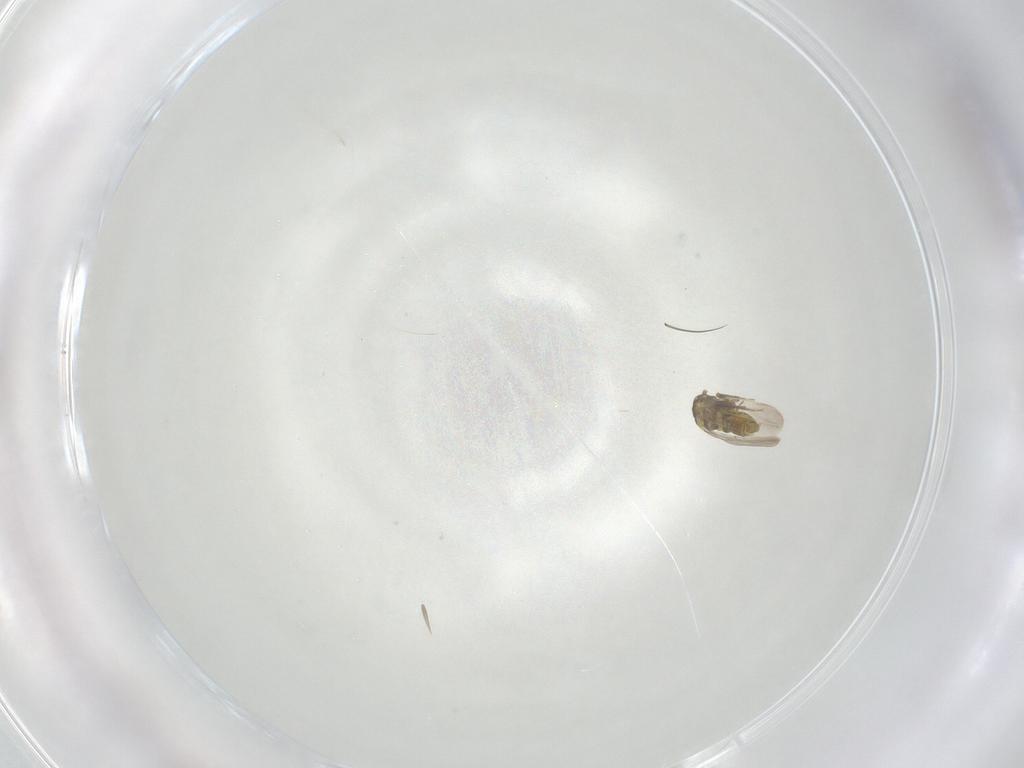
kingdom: Animalia
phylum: Arthropoda
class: Insecta
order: Hemiptera
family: Aleyrodidae
